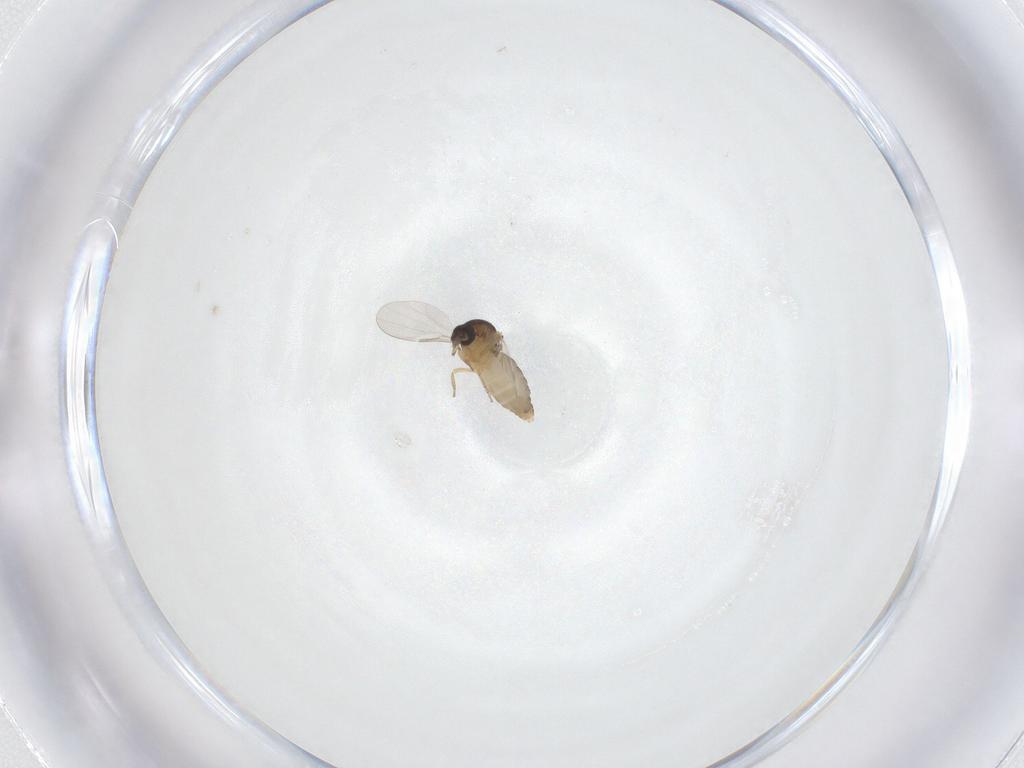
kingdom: Animalia
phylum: Arthropoda
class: Insecta
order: Diptera
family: Ceratopogonidae
